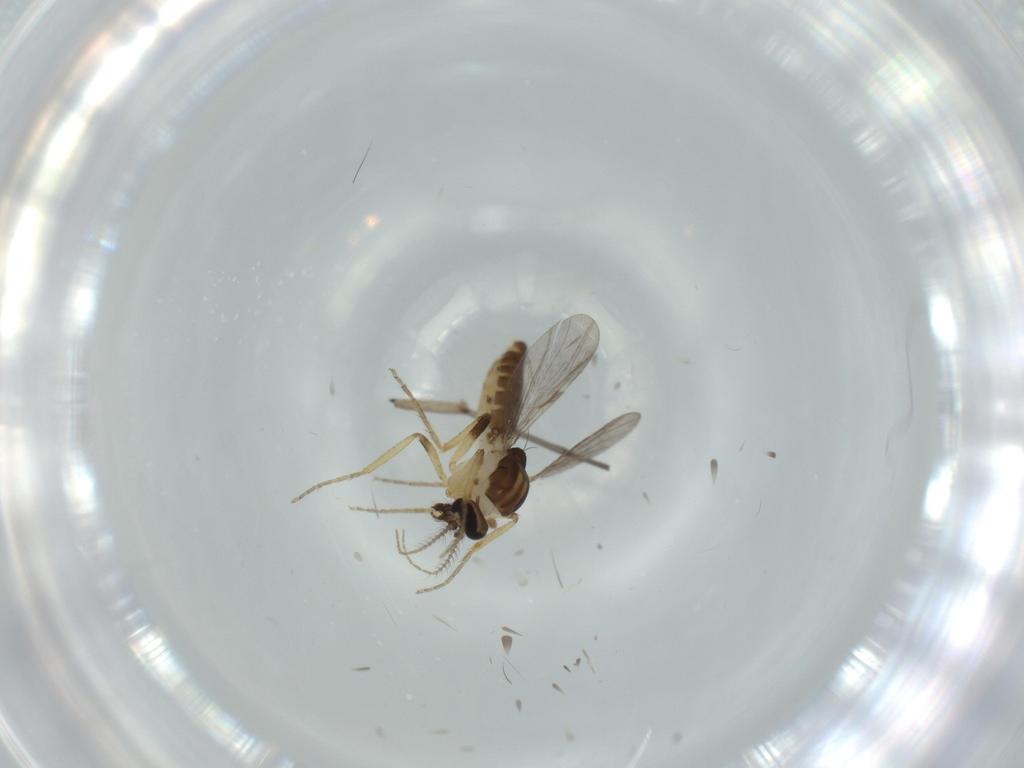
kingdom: Animalia
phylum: Arthropoda
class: Insecta
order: Diptera
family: Sciaridae
